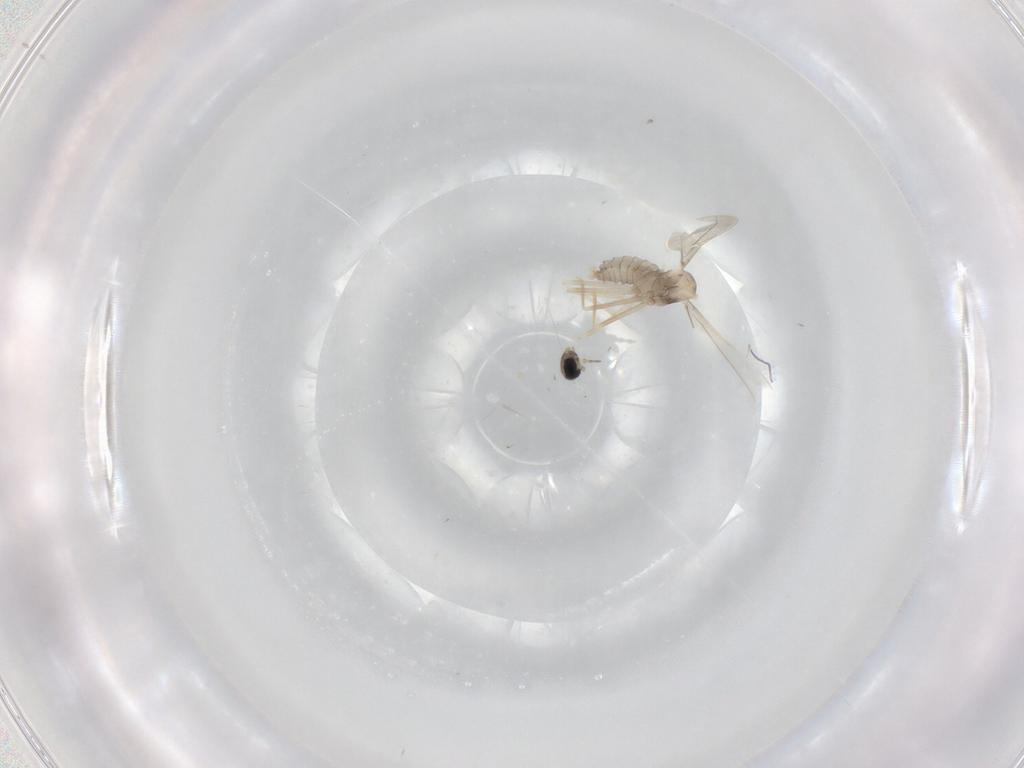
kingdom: Animalia
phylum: Arthropoda
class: Insecta
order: Diptera
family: Cecidomyiidae
